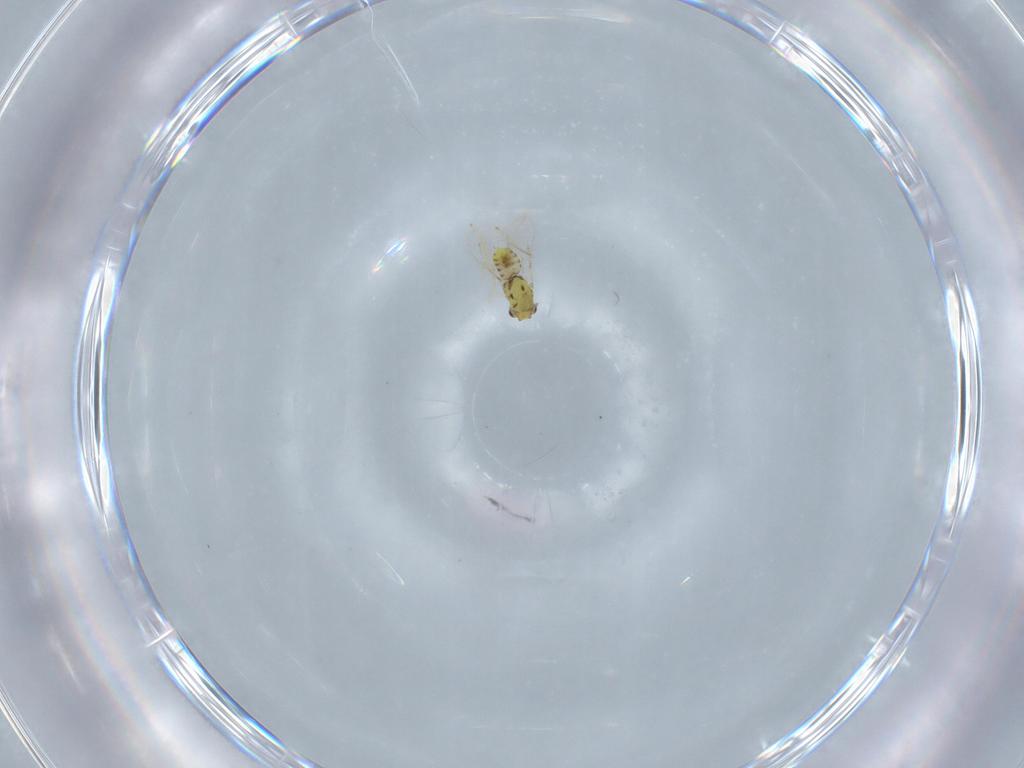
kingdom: Animalia
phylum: Arthropoda
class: Insecta
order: Hymenoptera
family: Eulophidae
